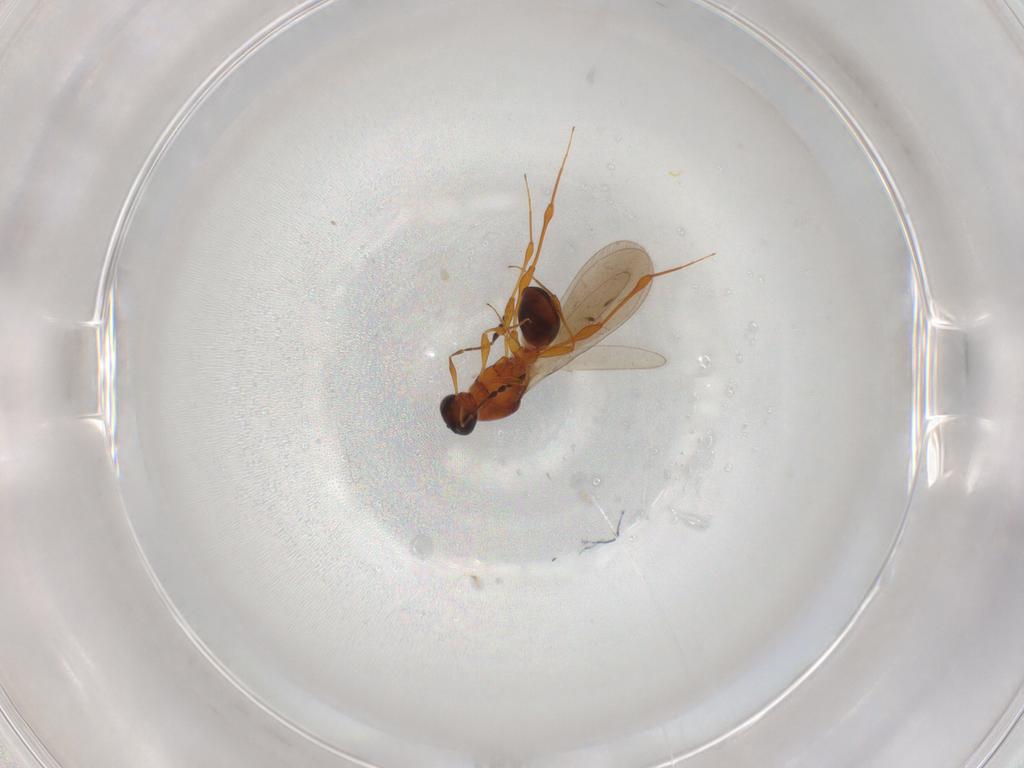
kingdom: Animalia
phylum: Arthropoda
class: Insecta
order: Hymenoptera
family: Platygastridae
